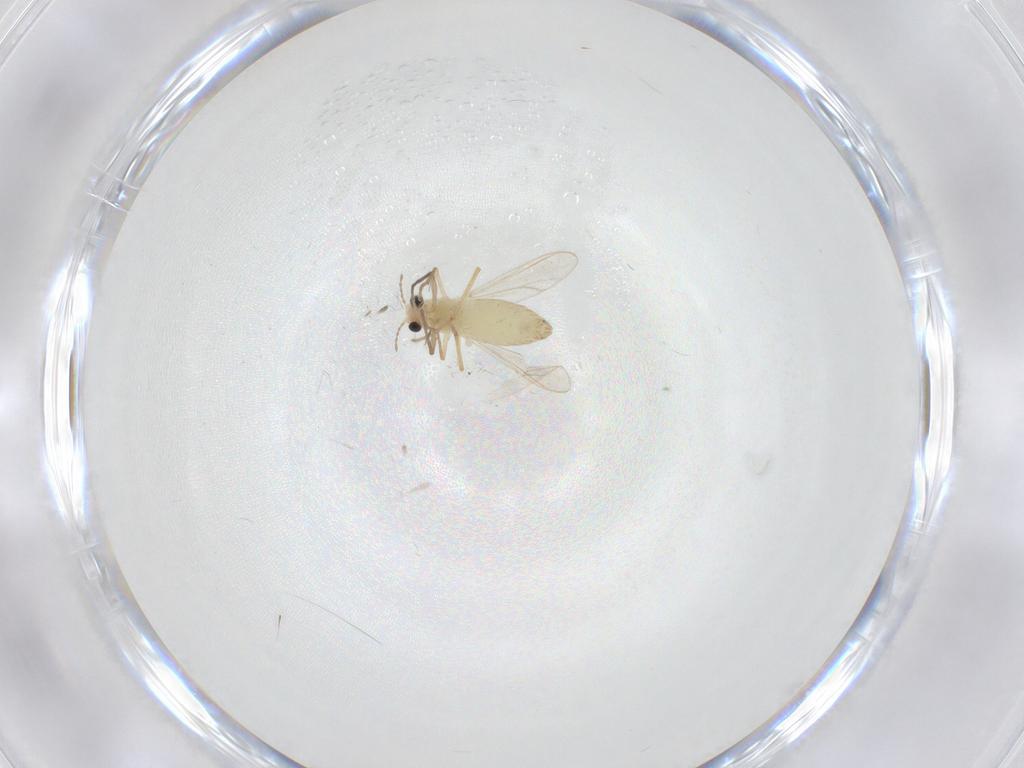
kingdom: Animalia
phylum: Arthropoda
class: Insecta
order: Diptera
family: Chironomidae
